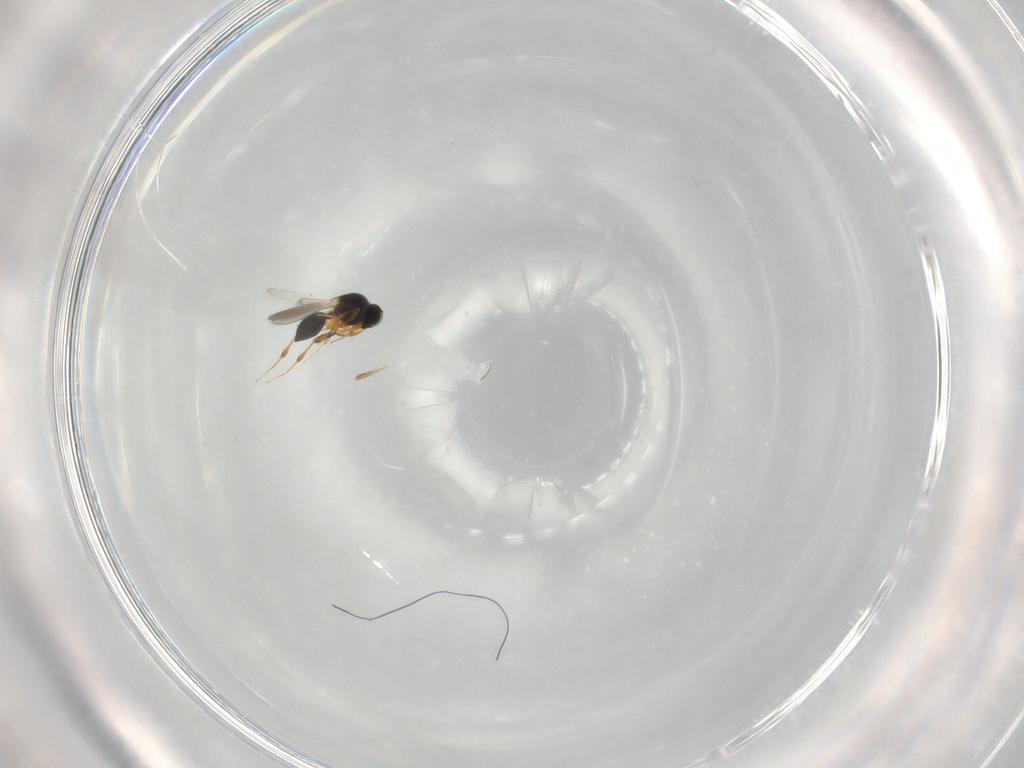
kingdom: Animalia
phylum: Arthropoda
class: Insecta
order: Hymenoptera
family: Platygastridae
